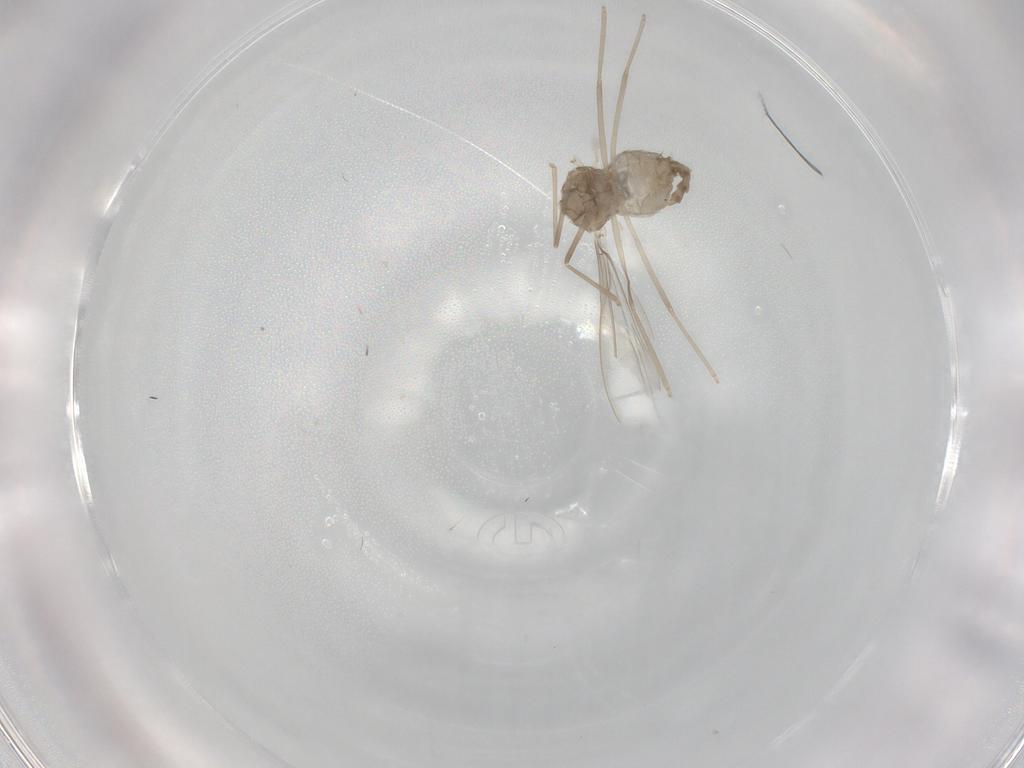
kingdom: Animalia
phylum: Arthropoda
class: Insecta
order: Diptera
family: Cecidomyiidae
